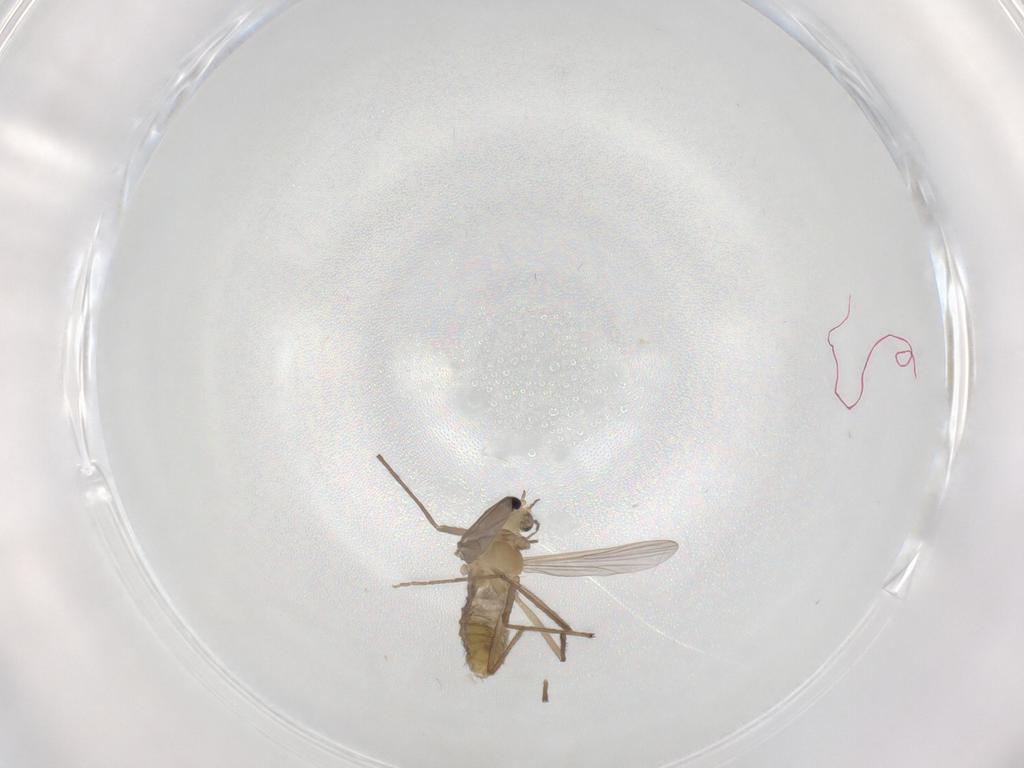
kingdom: Animalia
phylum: Arthropoda
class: Insecta
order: Diptera
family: Chironomidae
